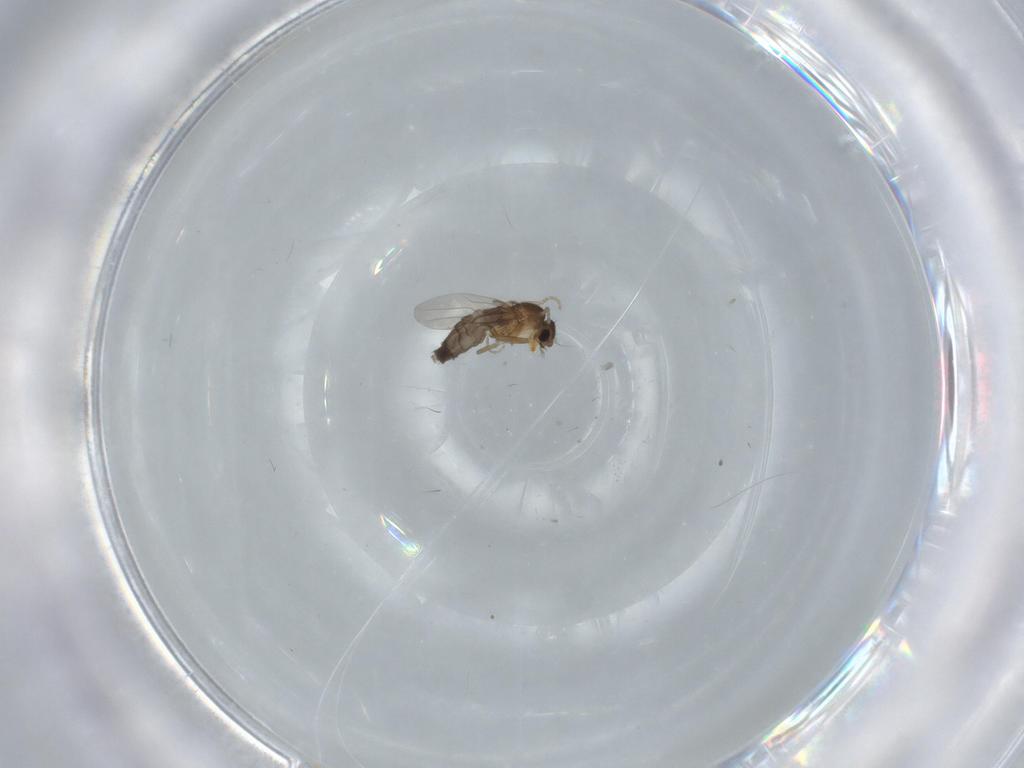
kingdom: Animalia
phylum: Arthropoda
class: Insecta
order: Diptera
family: Phoridae
